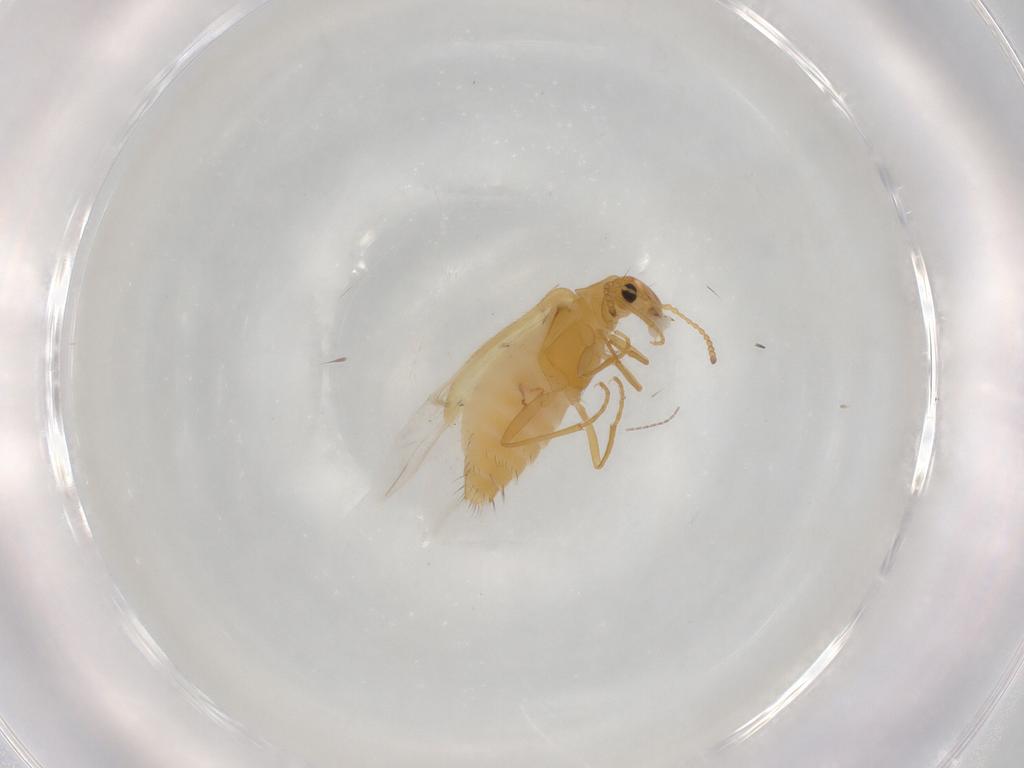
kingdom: Animalia
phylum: Arthropoda
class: Insecta
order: Coleoptera
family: Dasytidae
